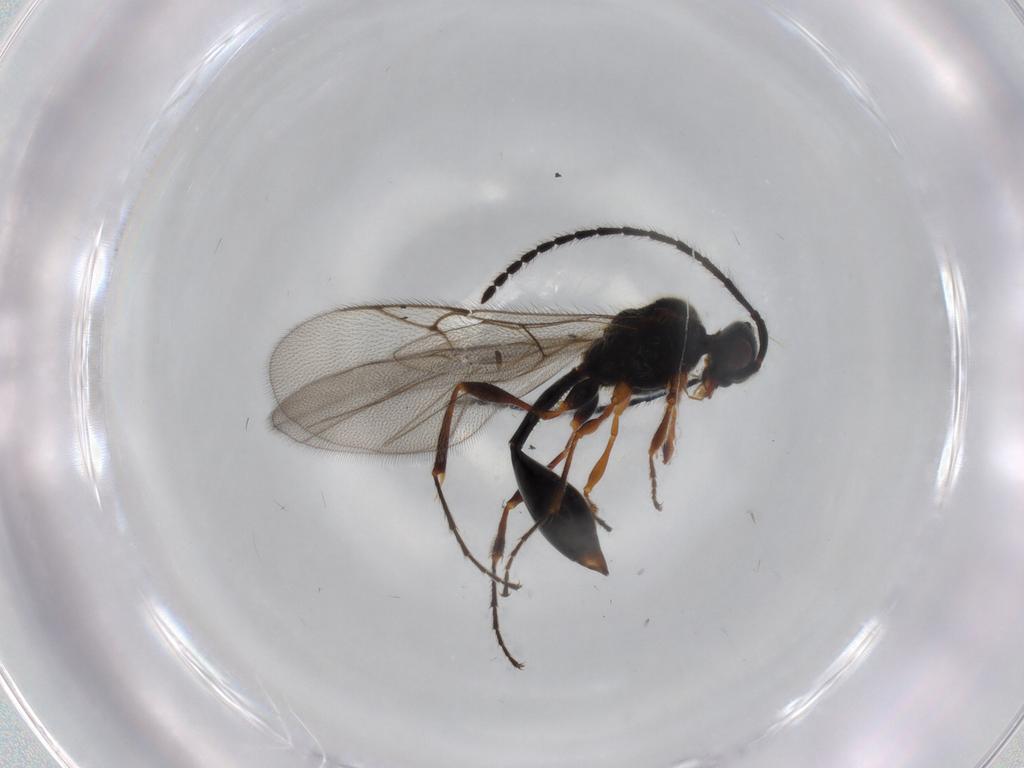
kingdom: Animalia
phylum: Arthropoda
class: Insecta
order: Hymenoptera
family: Diapriidae
